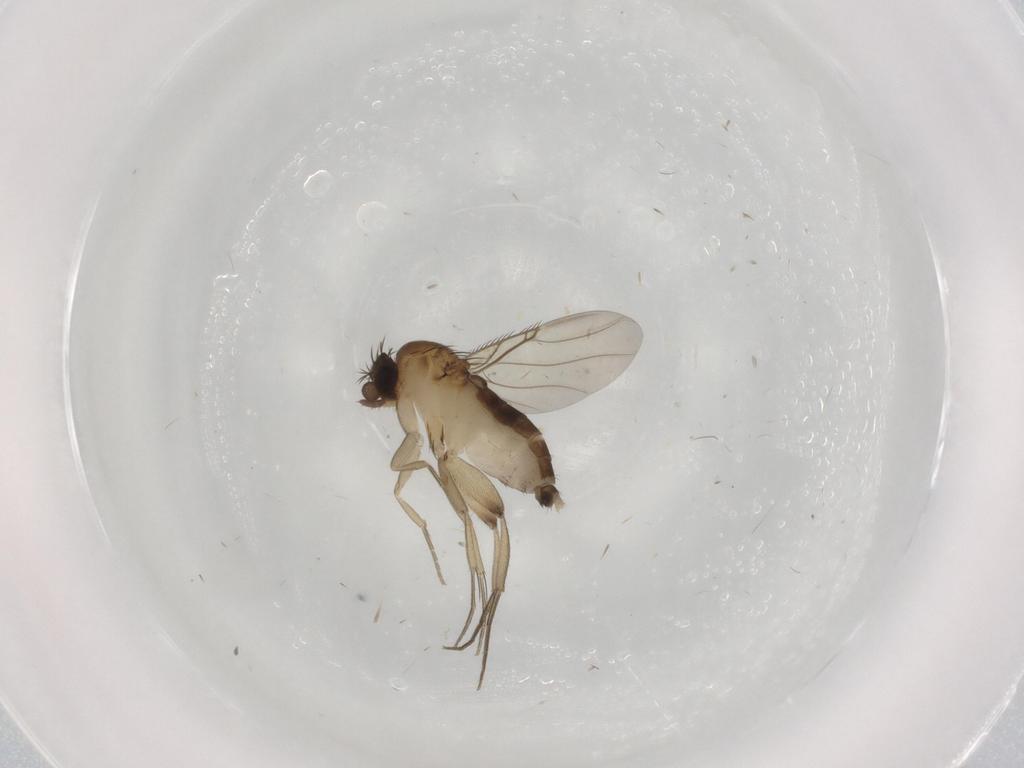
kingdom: Animalia
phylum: Arthropoda
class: Insecta
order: Diptera
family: Phoridae
